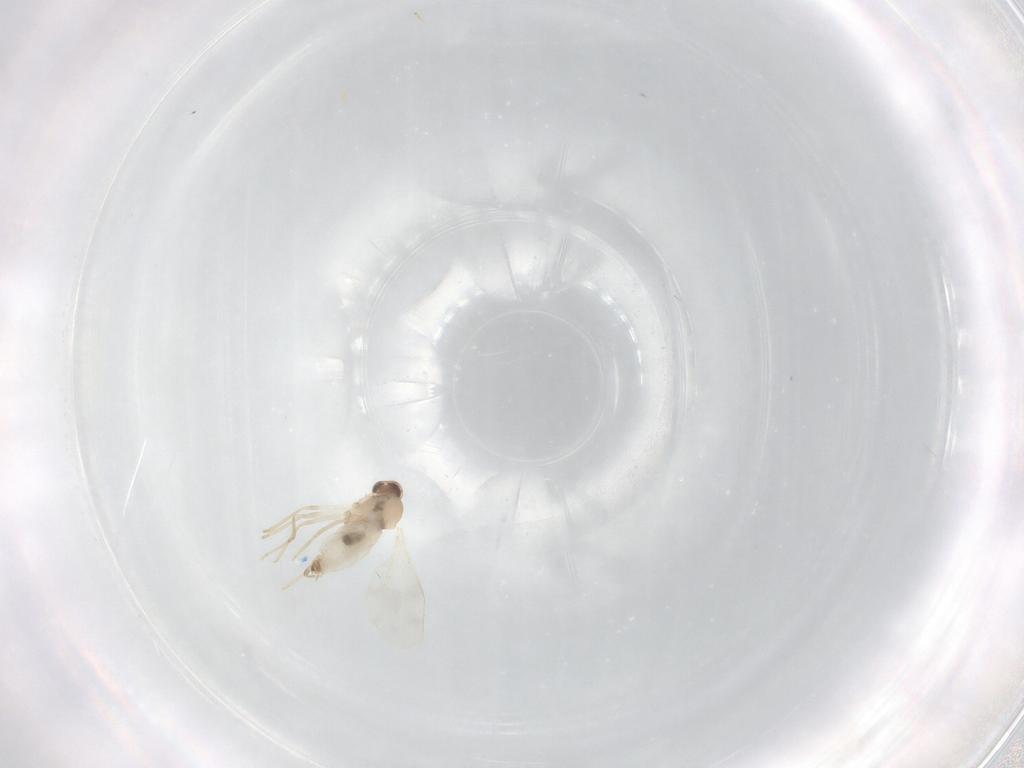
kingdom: Animalia
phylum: Arthropoda
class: Insecta
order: Diptera
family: Cecidomyiidae
